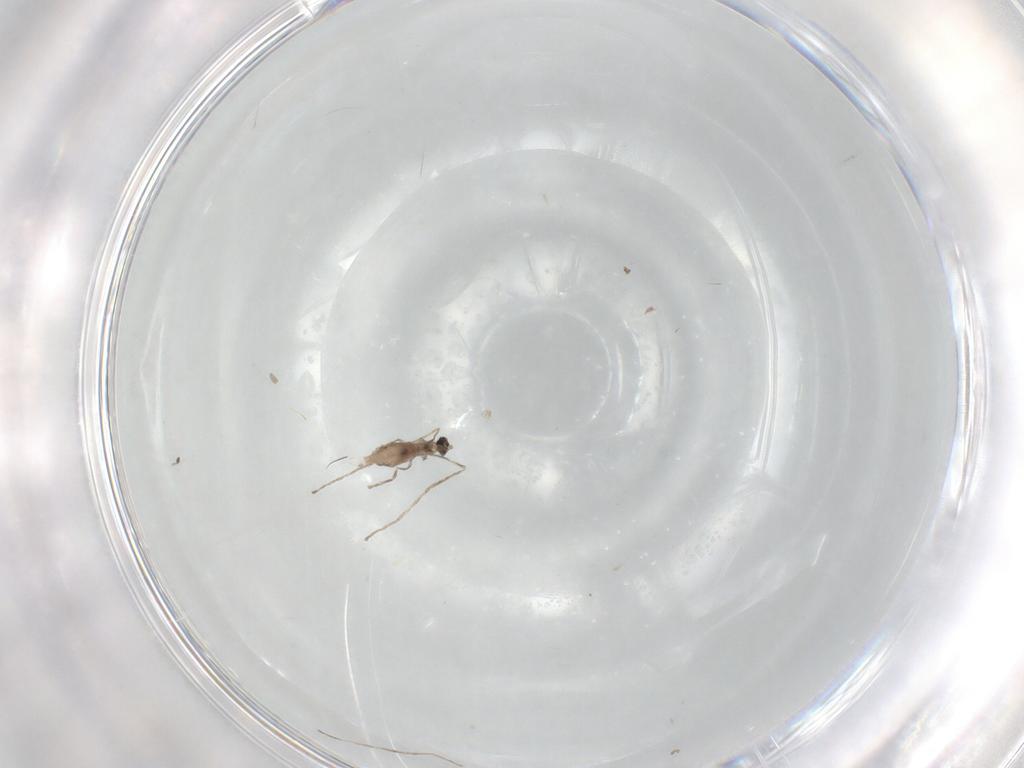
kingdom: Animalia
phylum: Arthropoda
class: Insecta
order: Diptera
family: Cecidomyiidae
